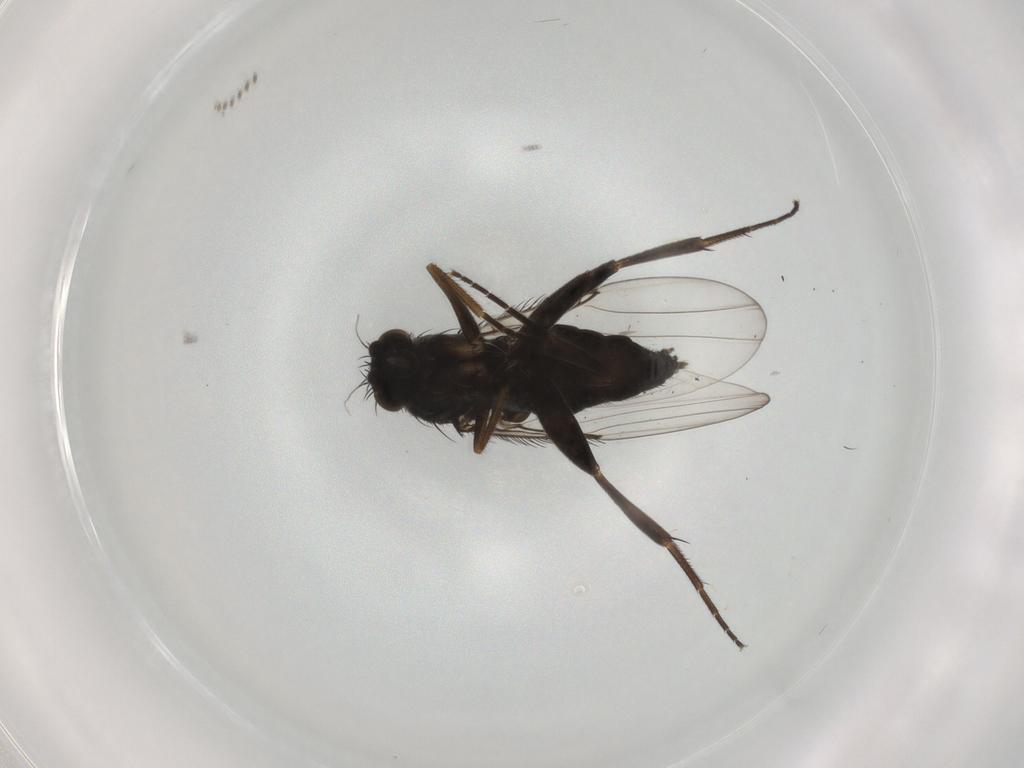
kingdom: Animalia
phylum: Arthropoda
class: Insecta
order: Diptera
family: Phoridae
